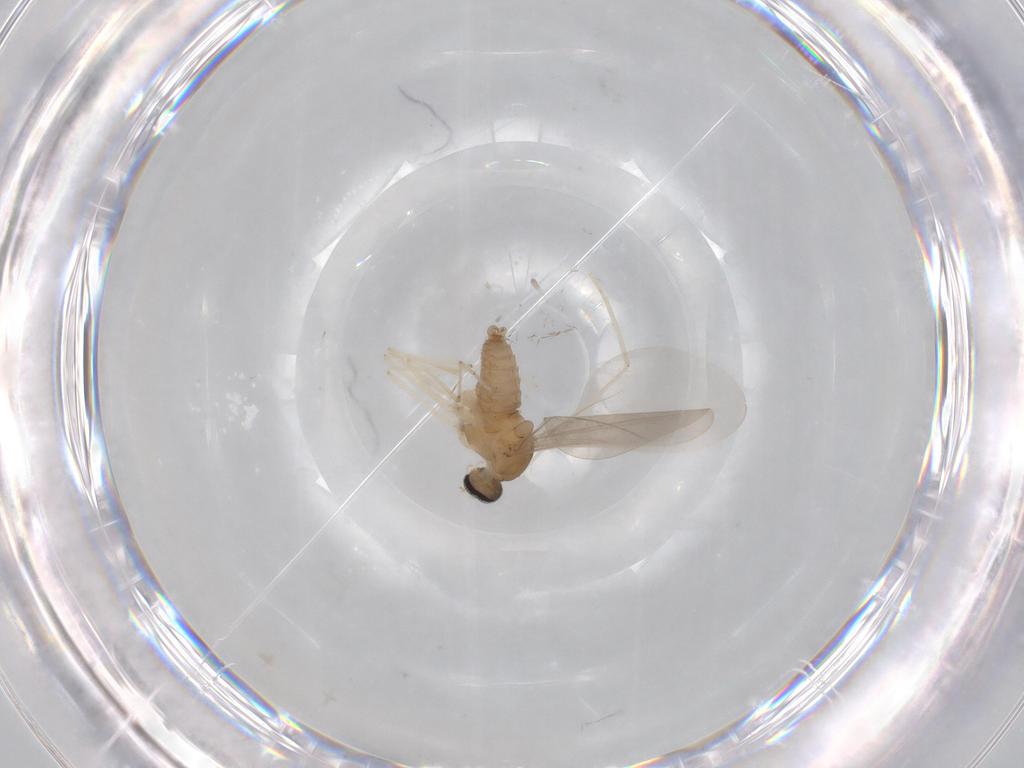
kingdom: Animalia
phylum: Arthropoda
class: Insecta
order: Diptera
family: Cecidomyiidae
